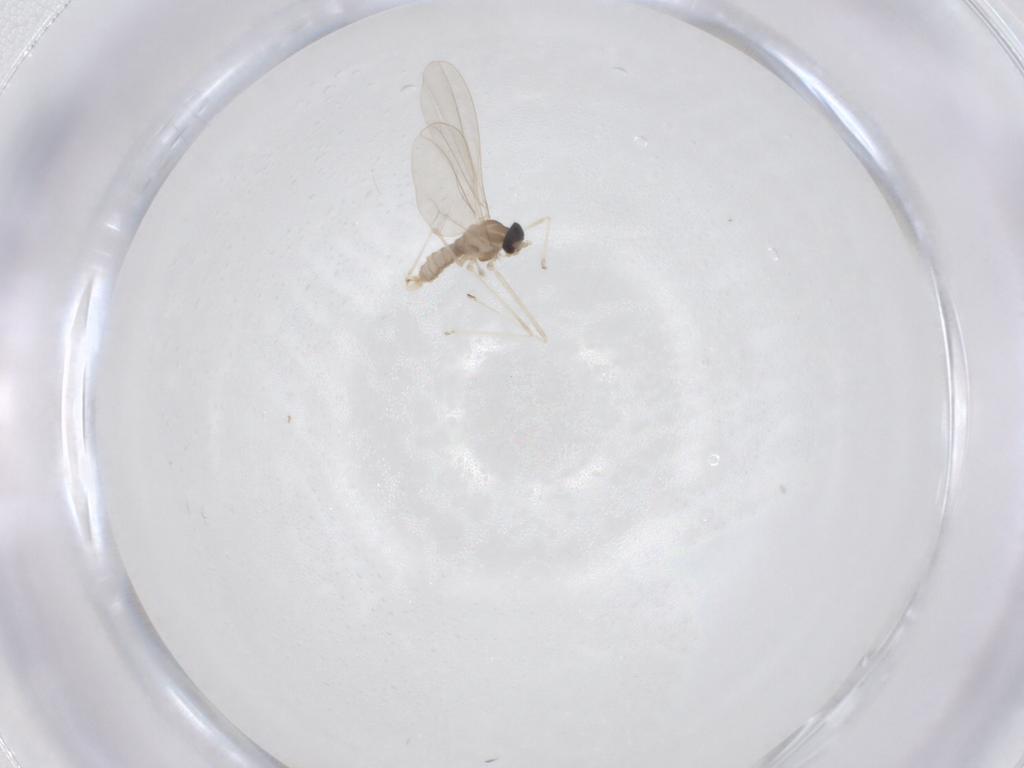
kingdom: Animalia
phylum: Arthropoda
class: Insecta
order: Diptera
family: Cecidomyiidae
